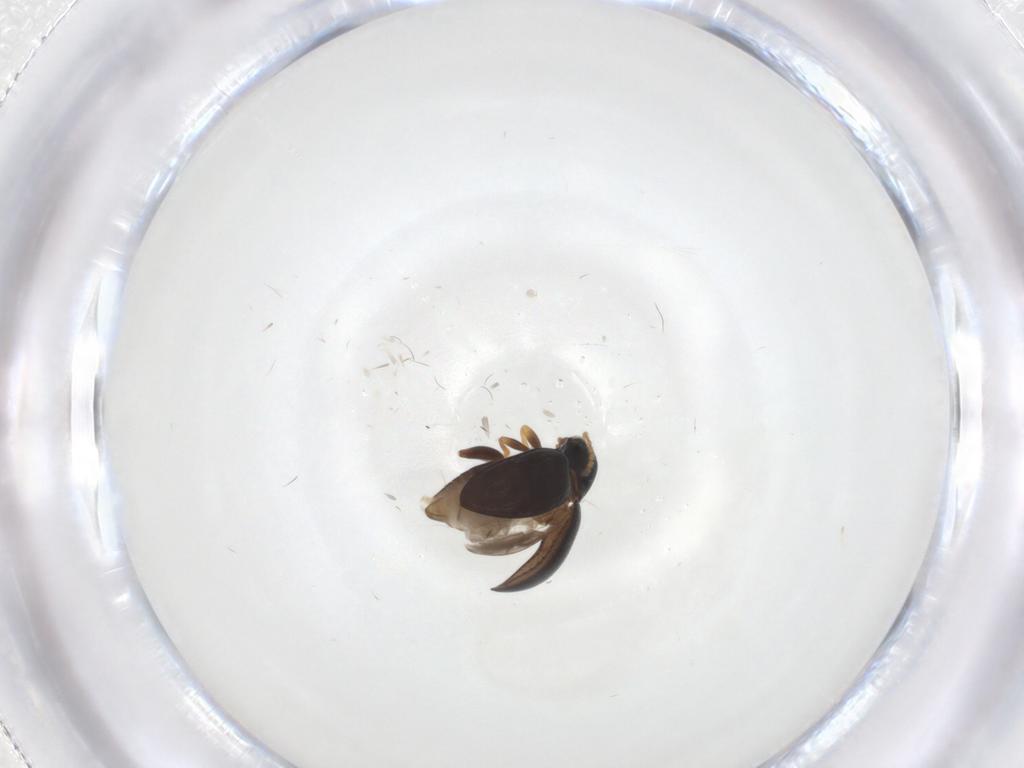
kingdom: Animalia
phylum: Arthropoda
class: Insecta
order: Coleoptera
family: Chrysomelidae
